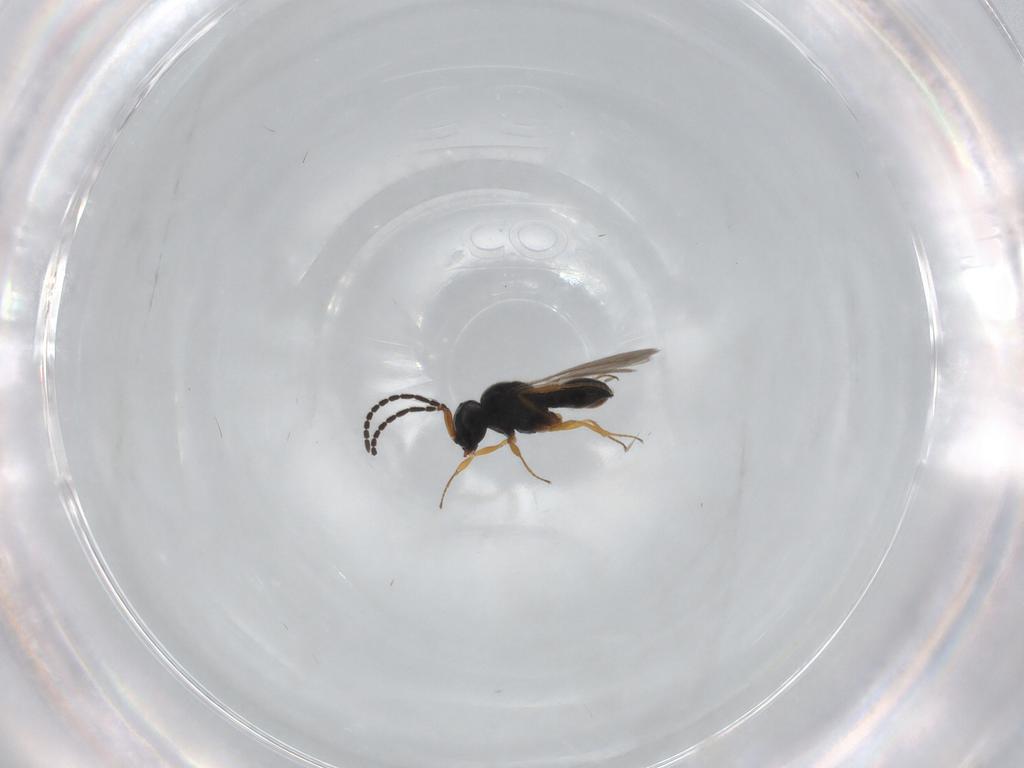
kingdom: Animalia
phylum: Arthropoda
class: Insecta
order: Hymenoptera
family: Scelionidae
